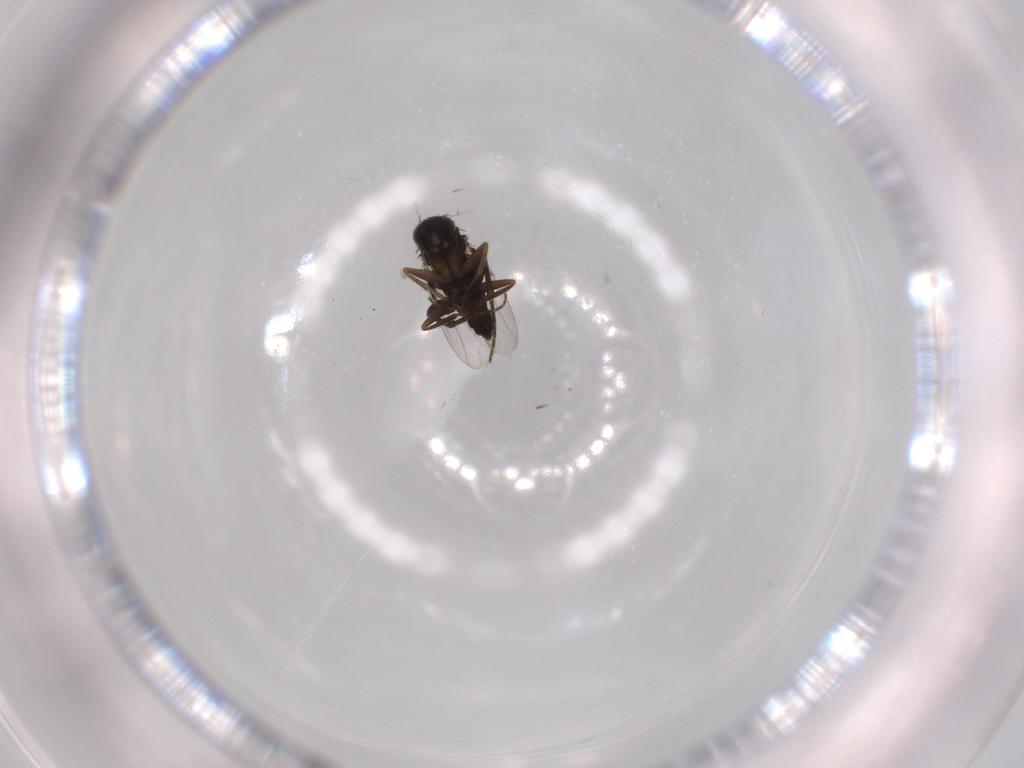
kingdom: Animalia
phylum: Arthropoda
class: Insecta
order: Diptera
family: Phoridae
